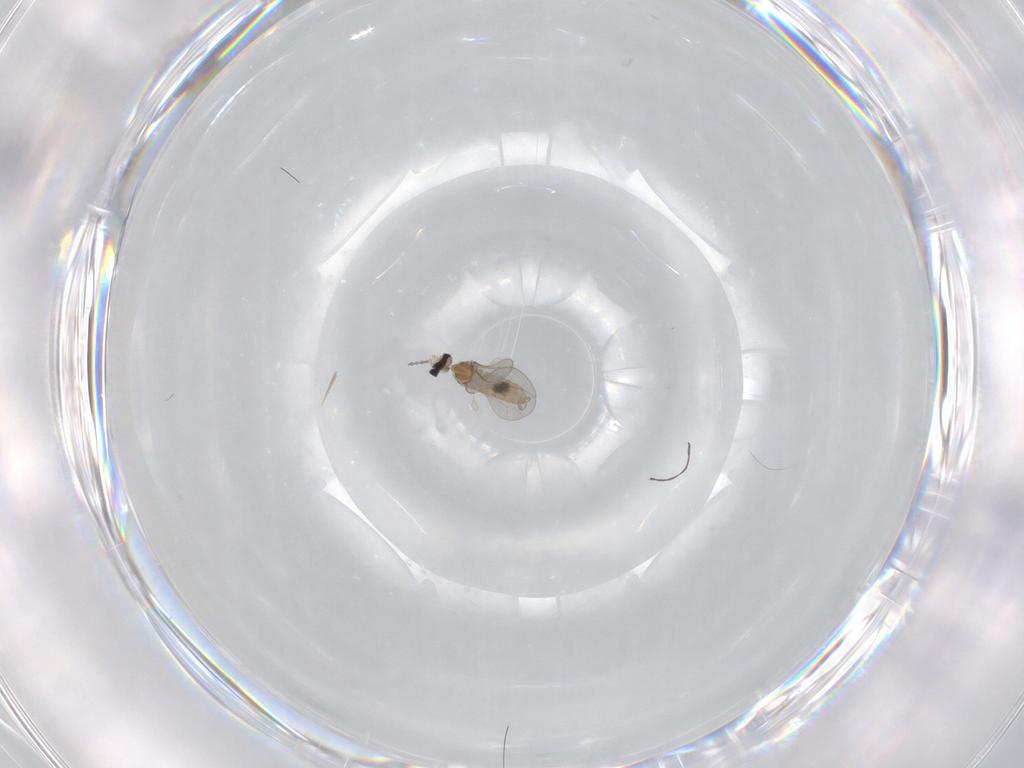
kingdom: Animalia
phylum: Arthropoda
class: Insecta
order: Diptera
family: Cecidomyiidae
